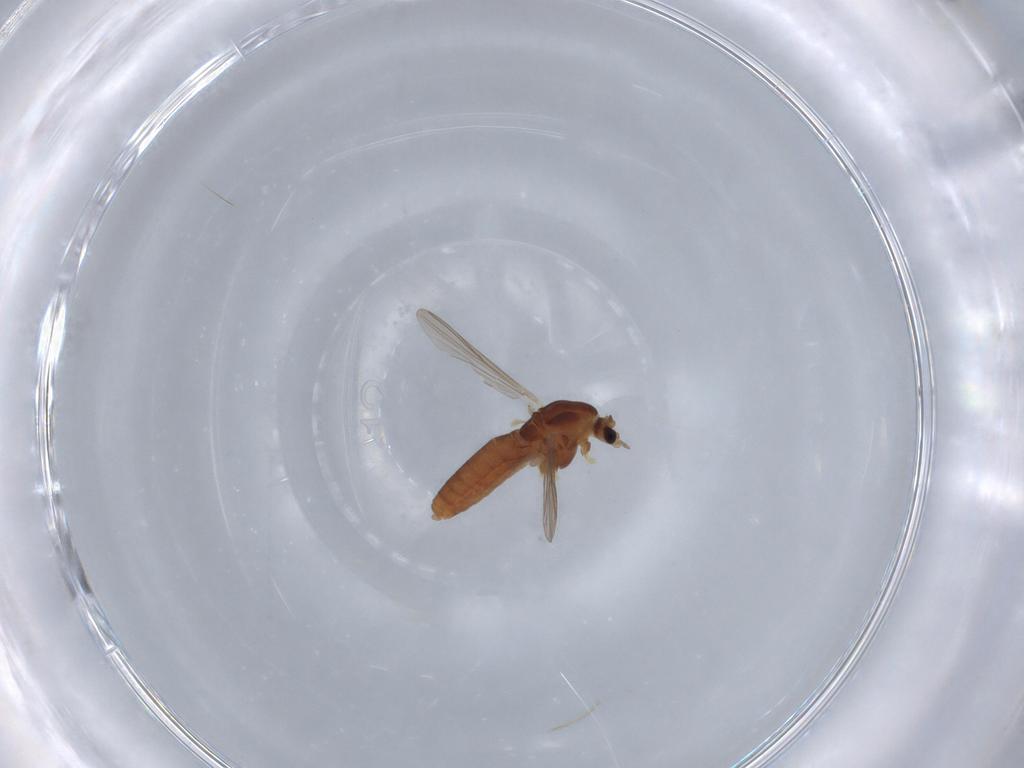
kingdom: Animalia
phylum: Arthropoda
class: Insecta
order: Diptera
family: Chironomidae
